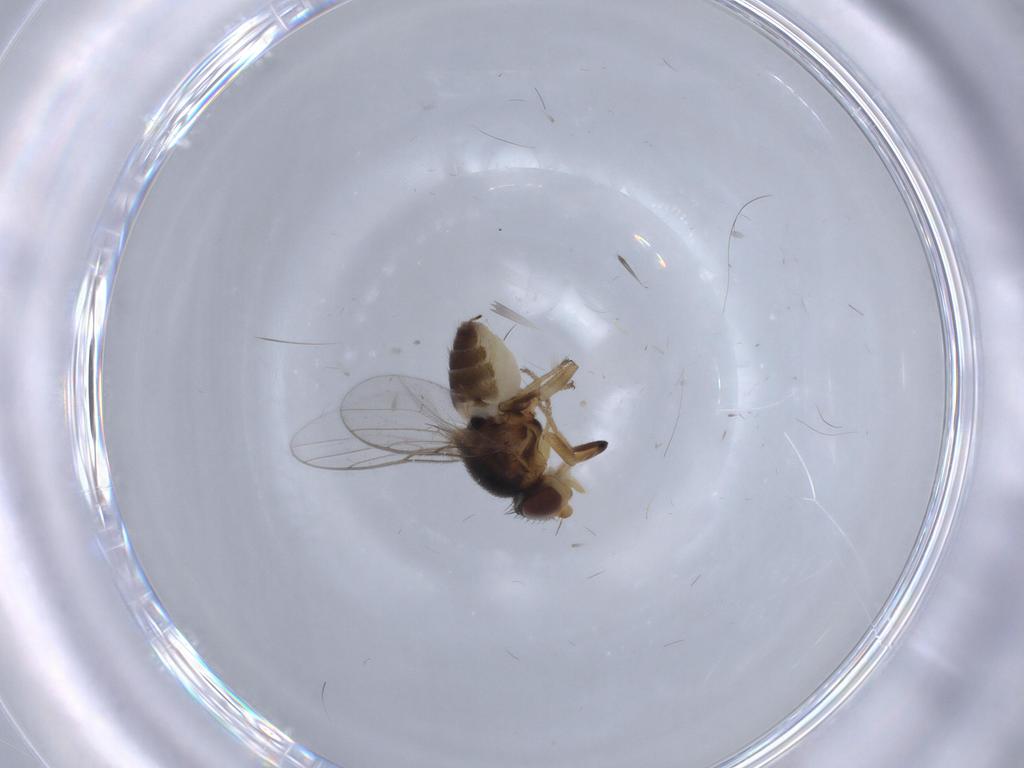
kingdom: Animalia
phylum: Arthropoda
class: Insecta
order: Diptera
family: Chloropidae
